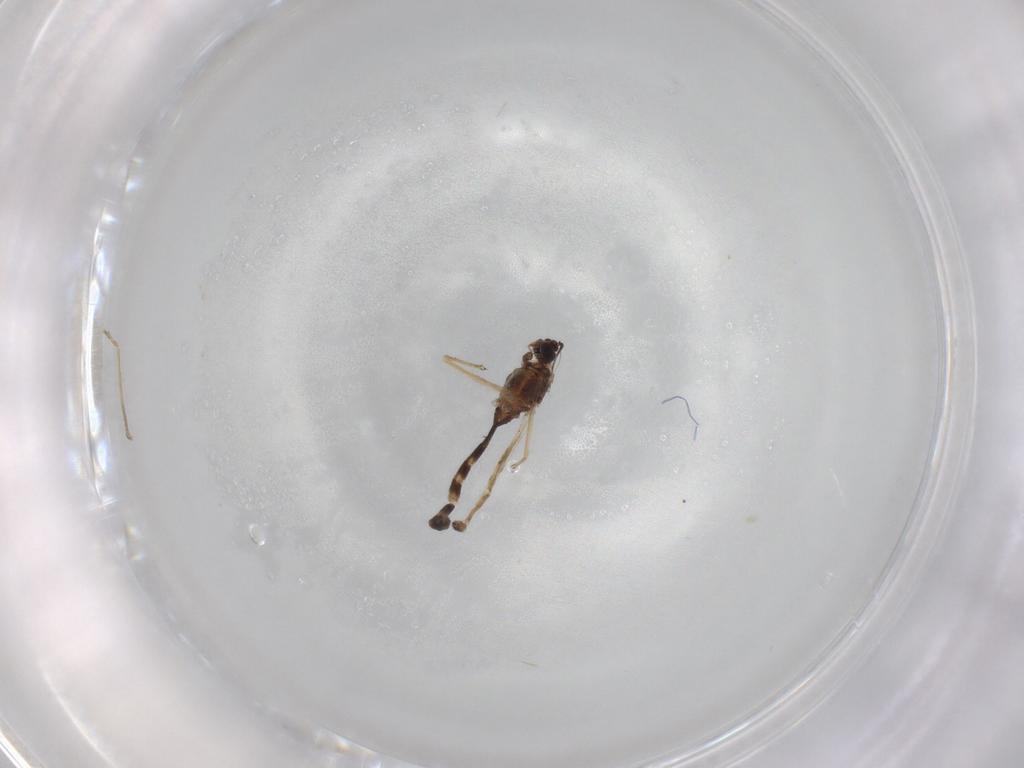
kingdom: Animalia
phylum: Arthropoda
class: Insecta
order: Diptera
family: Chironomidae
